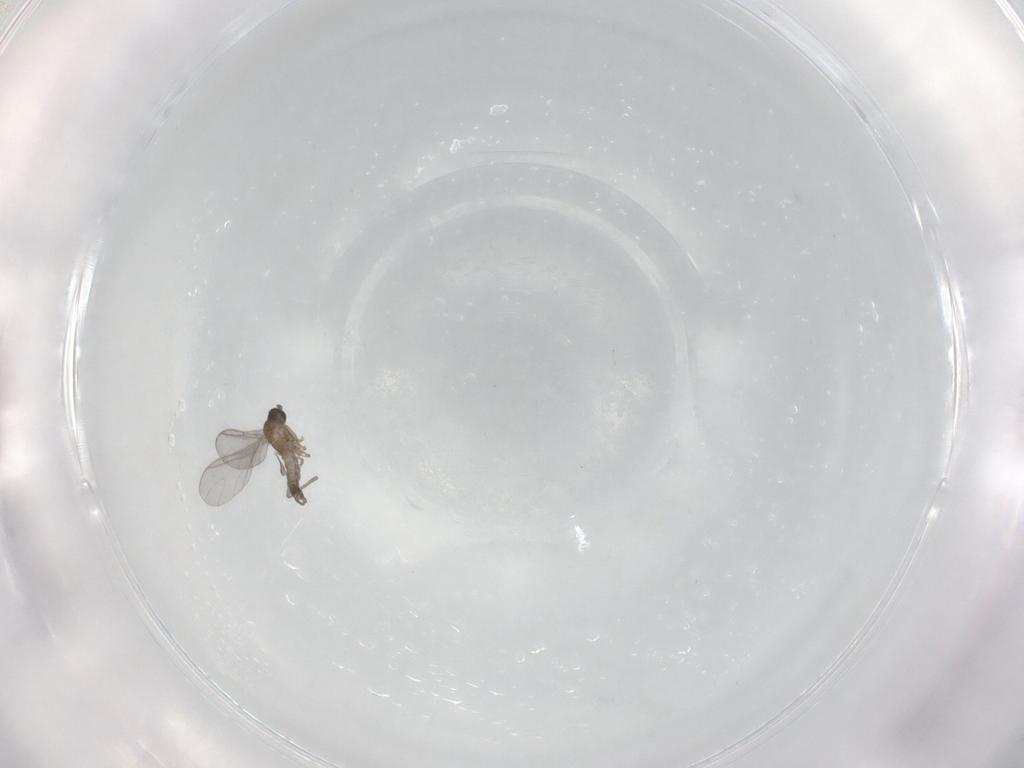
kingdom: Animalia
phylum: Arthropoda
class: Insecta
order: Diptera
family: Sciaridae
